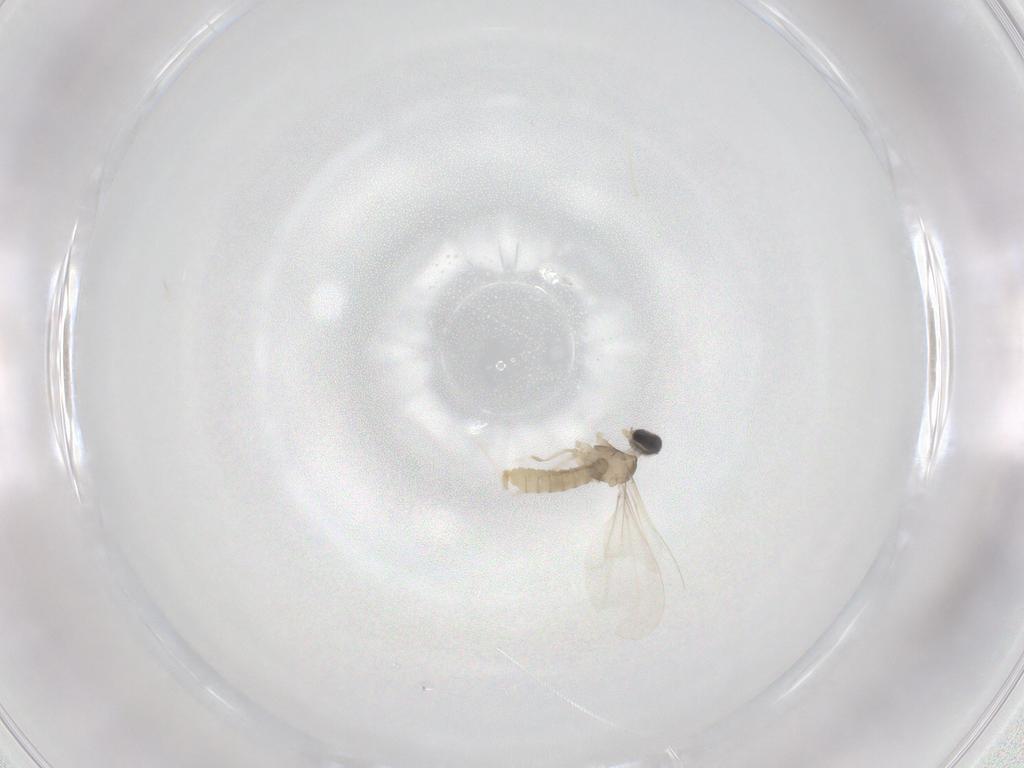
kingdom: Animalia
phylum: Arthropoda
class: Insecta
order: Diptera
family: Cecidomyiidae
